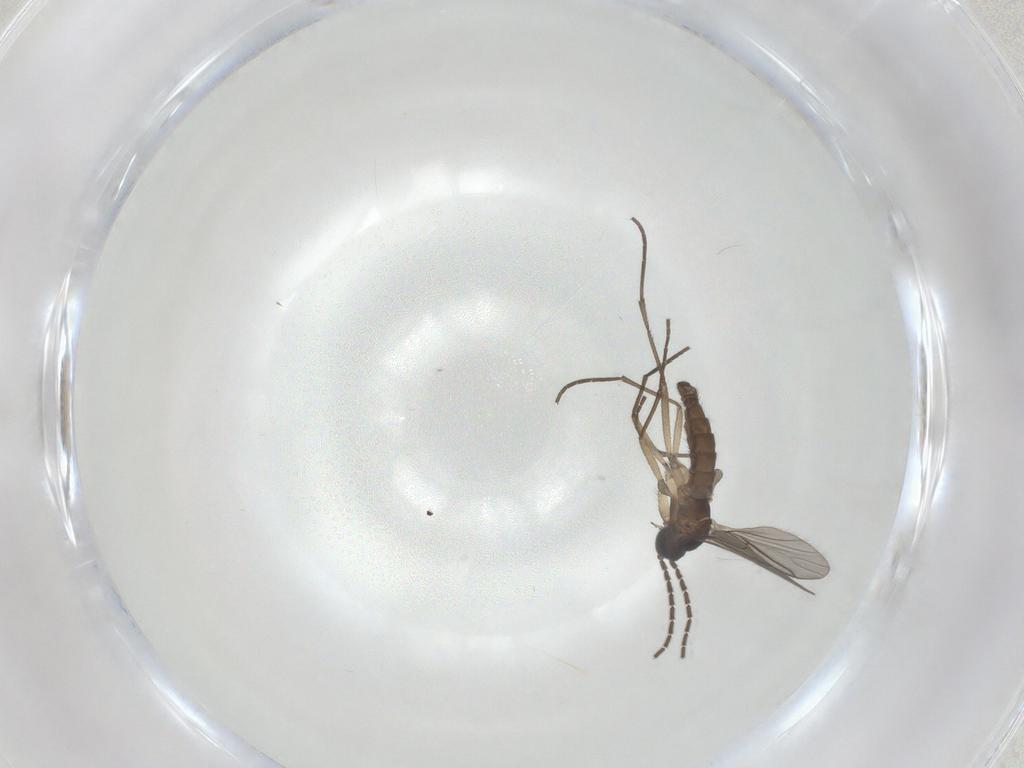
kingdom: Animalia
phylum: Arthropoda
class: Insecta
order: Diptera
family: Sciaridae
